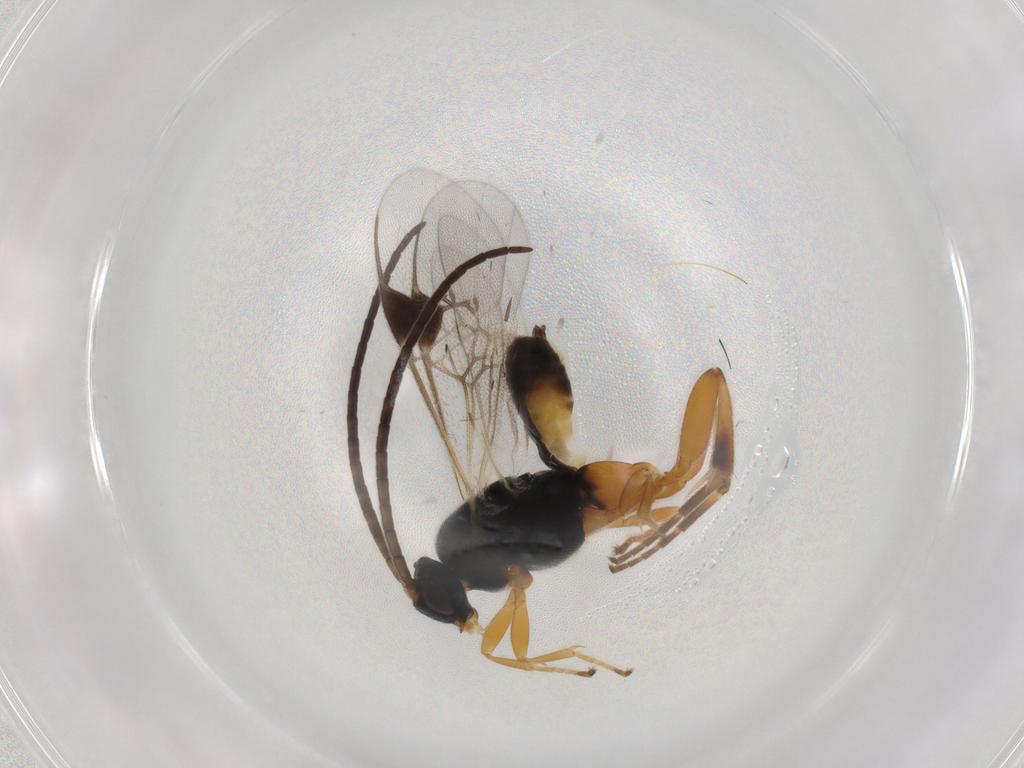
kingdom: Animalia
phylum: Arthropoda
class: Insecta
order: Hymenoptera
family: Braconidae
